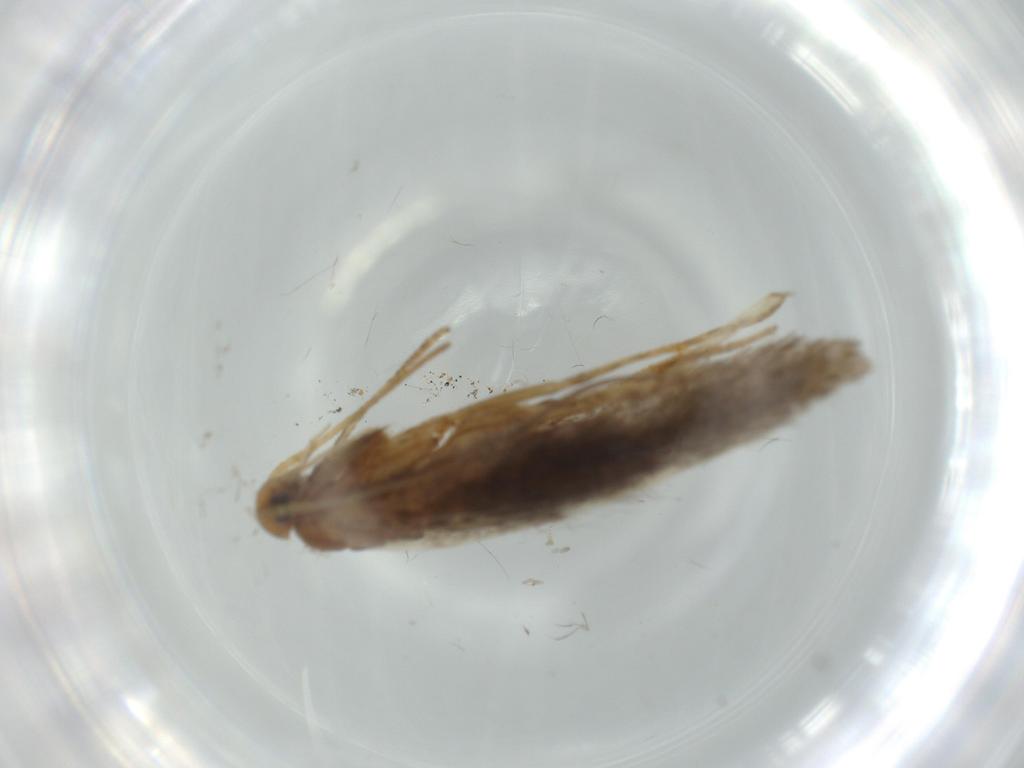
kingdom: Animalia
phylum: Arthropoda
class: Insecta
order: Lepidoptera
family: Coleophoridae
